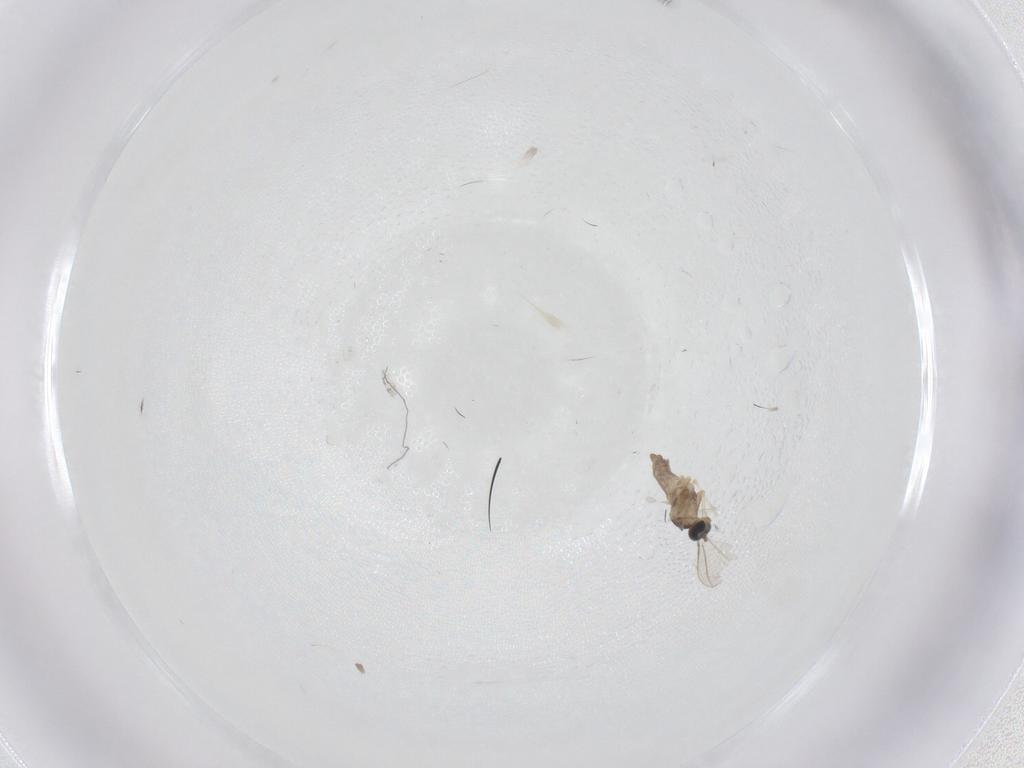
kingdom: Animalia
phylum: Arthropoda
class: Insecta
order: Diptera
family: Cecidomyiidae
